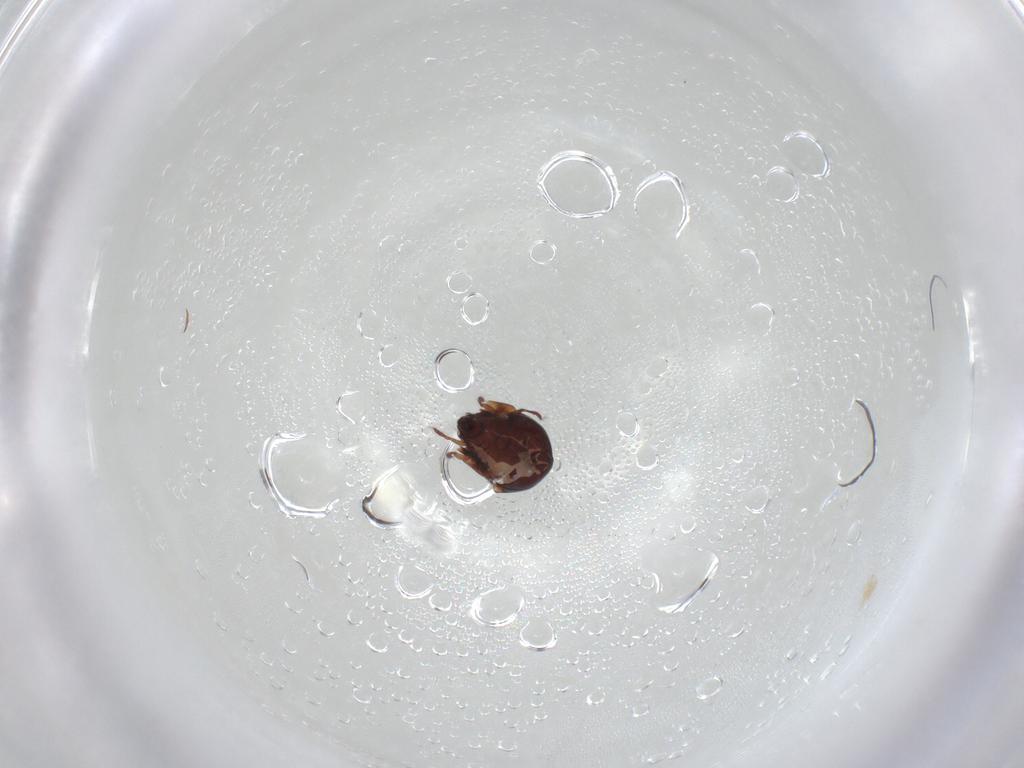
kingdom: Animalia
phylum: Arthropoda
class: Arachnida
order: Sarcoptiformes
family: Humerobatidae
